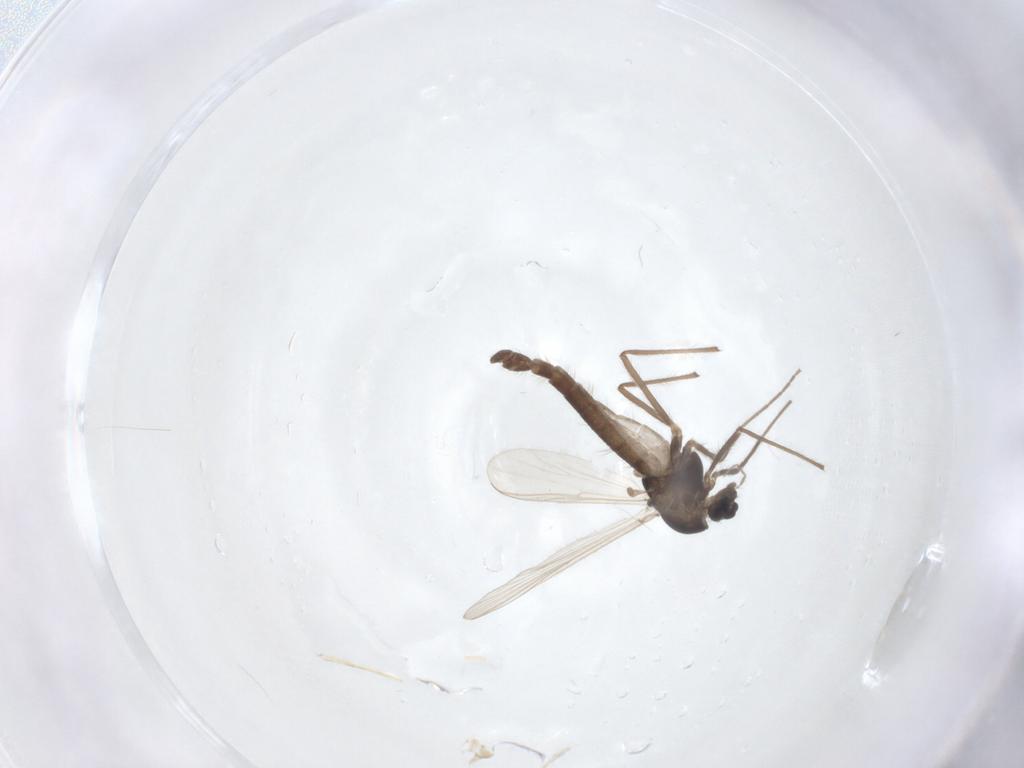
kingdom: Animalia
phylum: Arthropoda
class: Insecta
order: Diptera
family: Chironomidae
